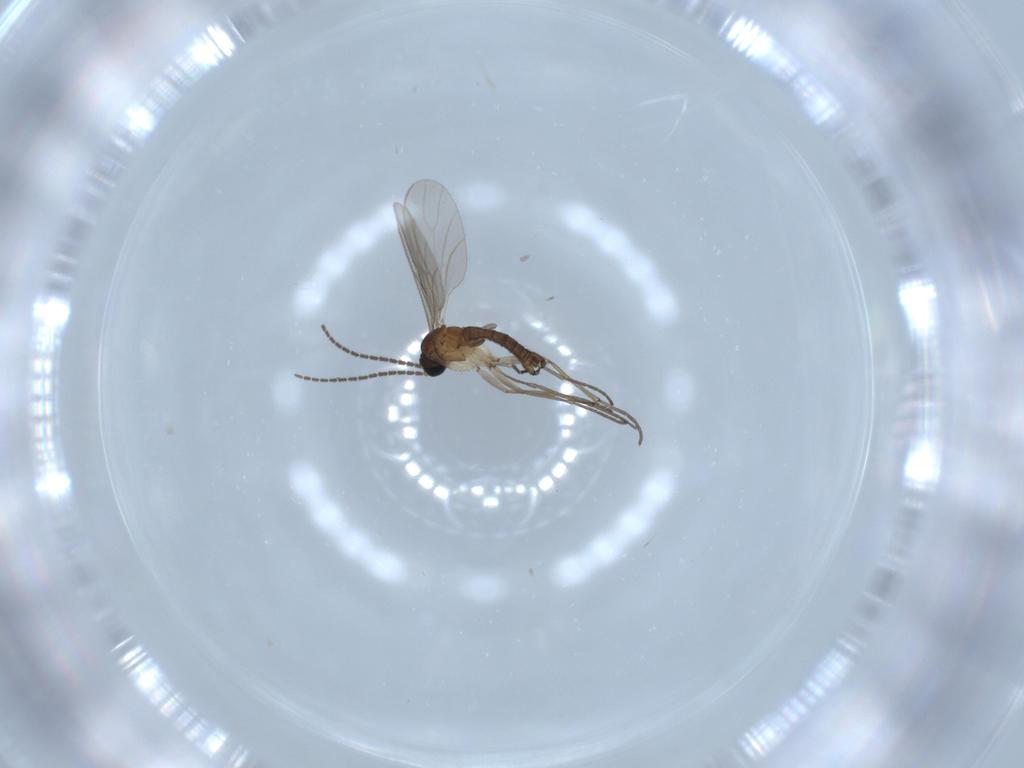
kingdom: Animalia
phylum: Arthropoda
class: Insecta
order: Diptera
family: Sciaridae
